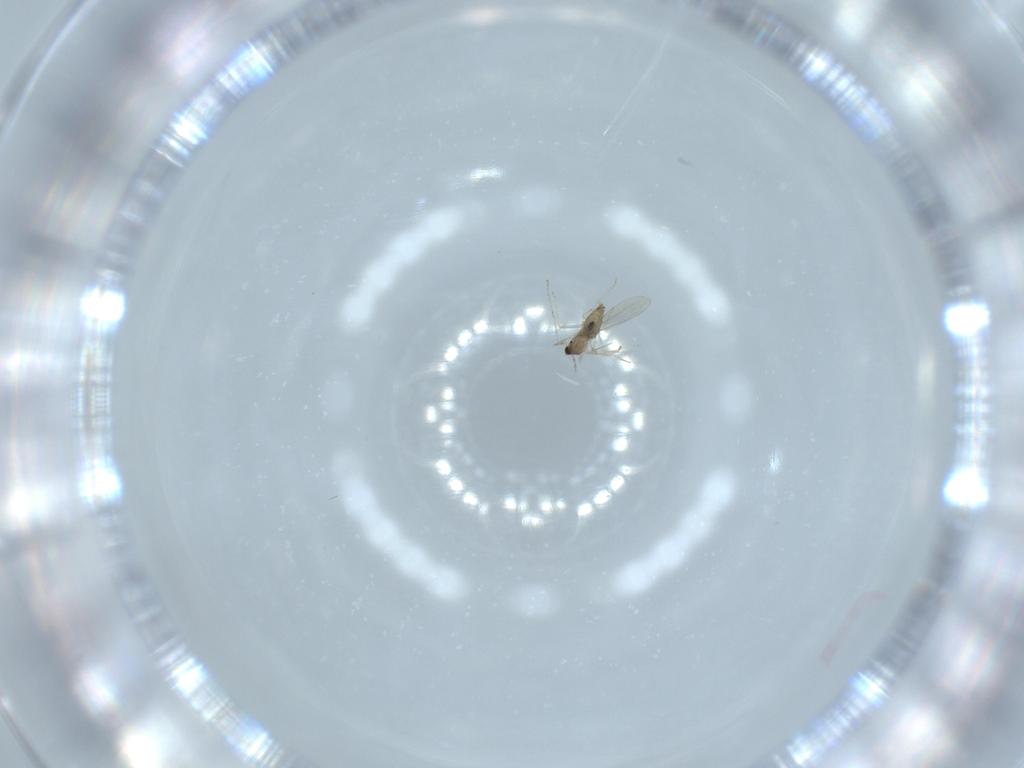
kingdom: Animalia
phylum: Arthropoda
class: Insecta
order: Diptera
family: Cecidomyiidae
